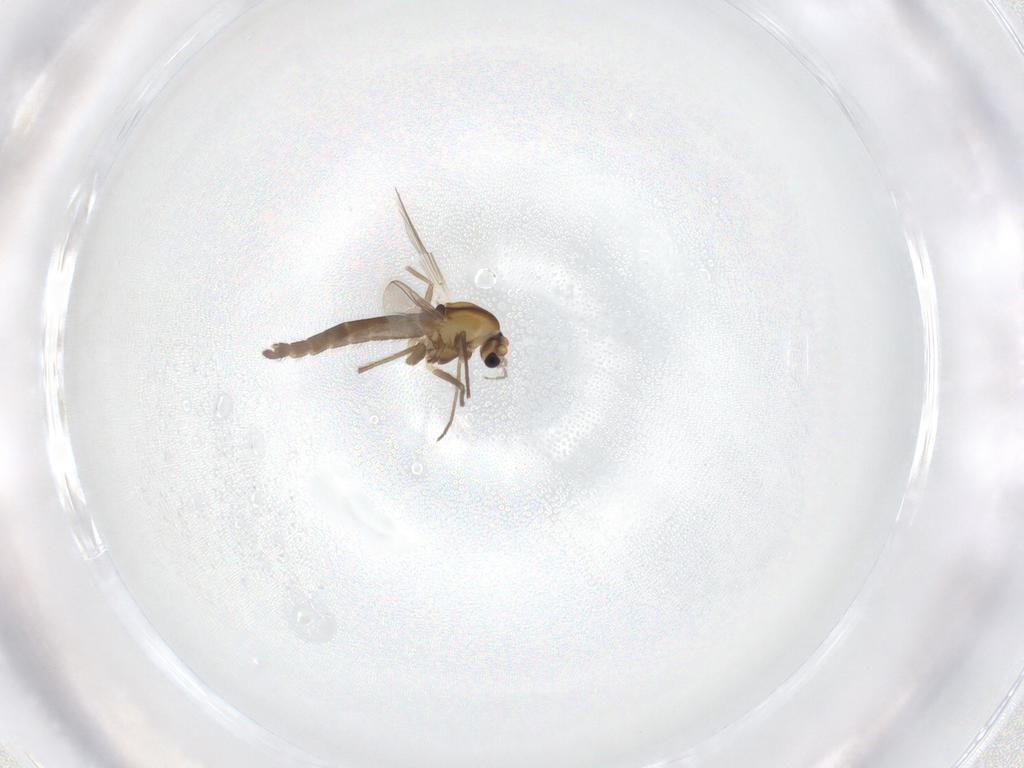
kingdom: Animalia
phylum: Arthropoda
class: Insecta
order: Diptera
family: Chironomidae
